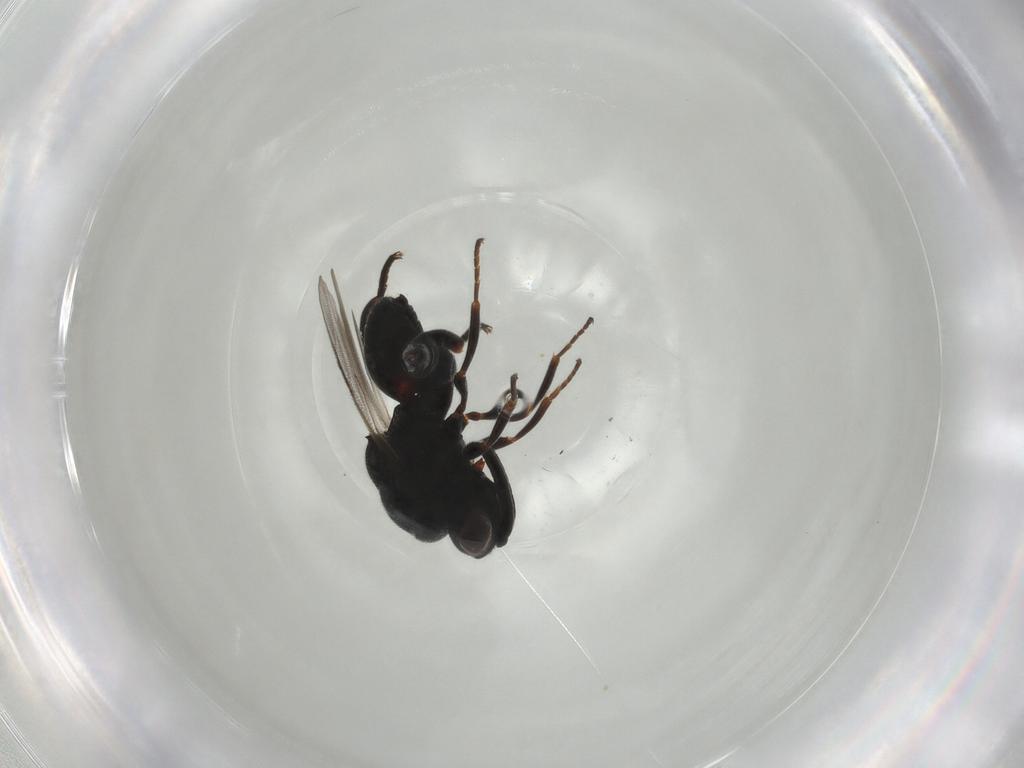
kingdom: Animalia
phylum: Arthropoda
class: Insecta
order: Hymenoptera
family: Chalcididae
